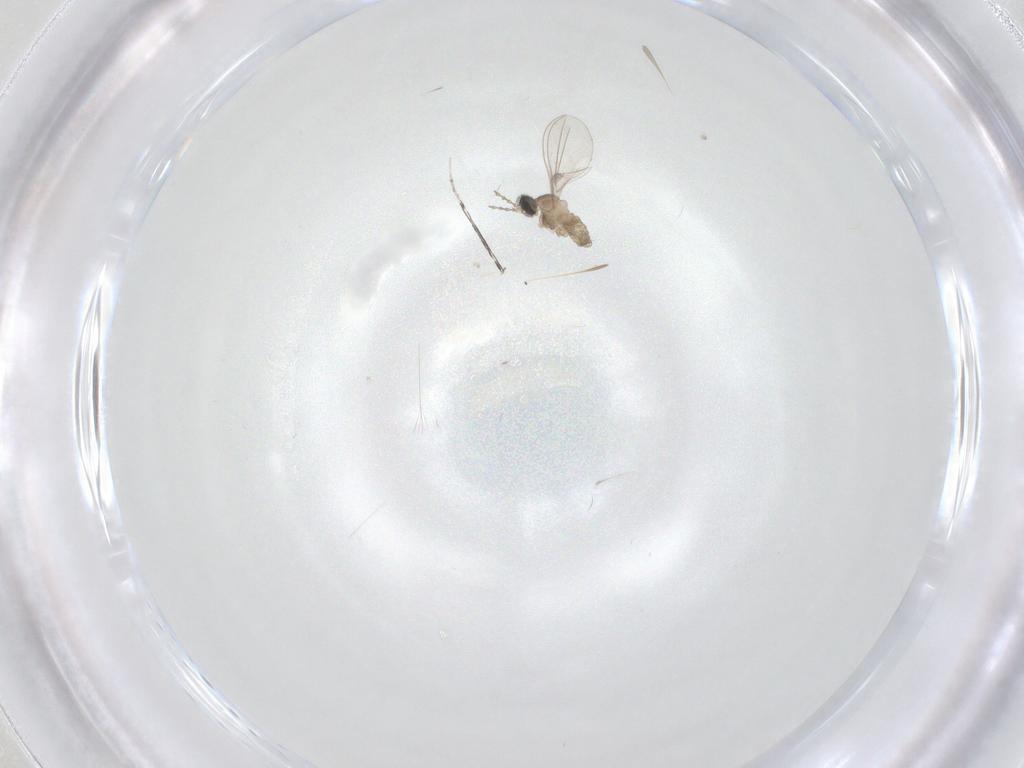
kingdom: Animalia
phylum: Arthropoda
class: Insecta
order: Diptera
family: Cecidomyiidae
